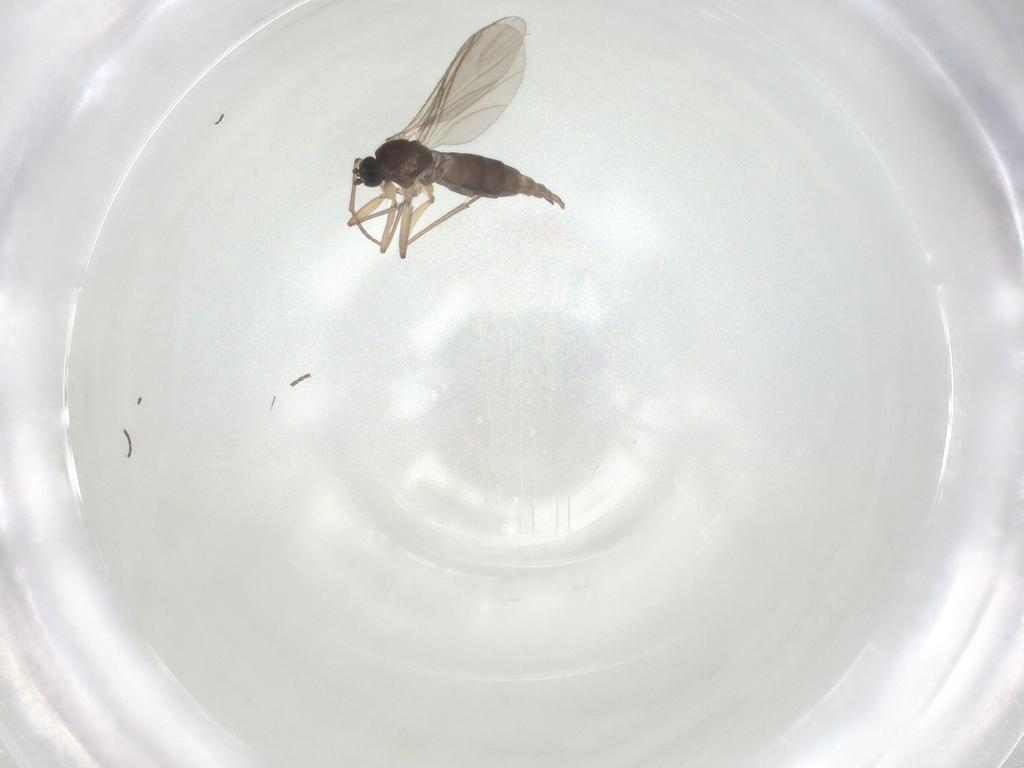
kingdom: Animalia
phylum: Arthropoda
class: Insecta
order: Diptera
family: Sciaridae
